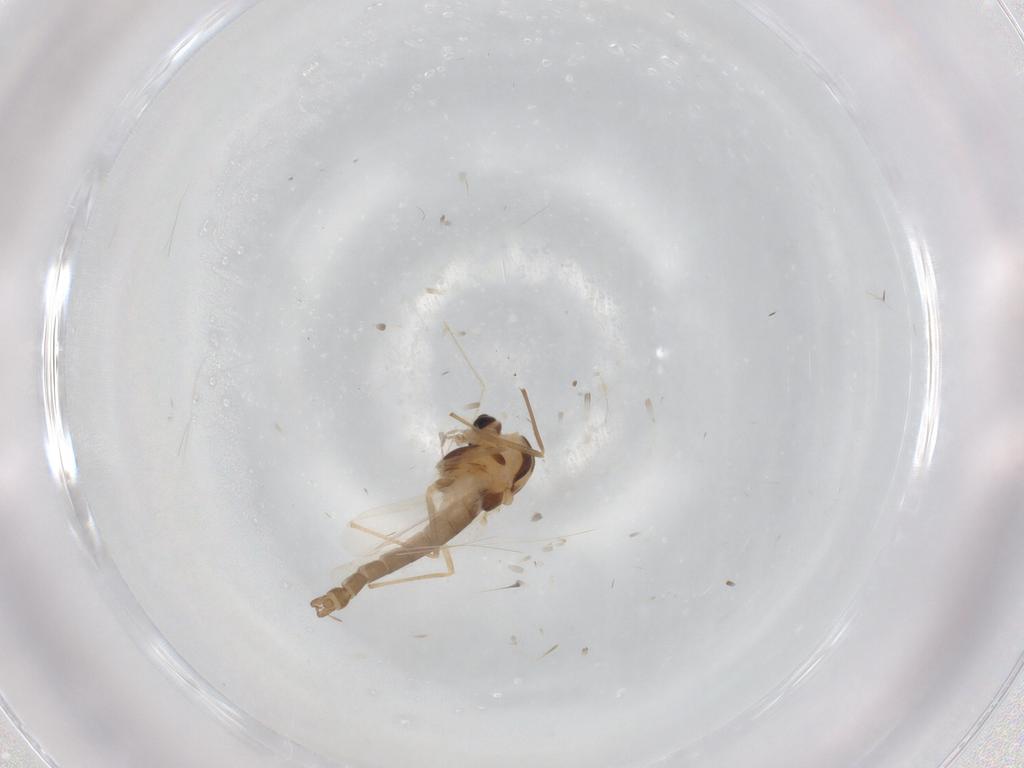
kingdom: Animalia
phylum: Arthropoda
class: Insecta
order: Diptera
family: Chironomidae
